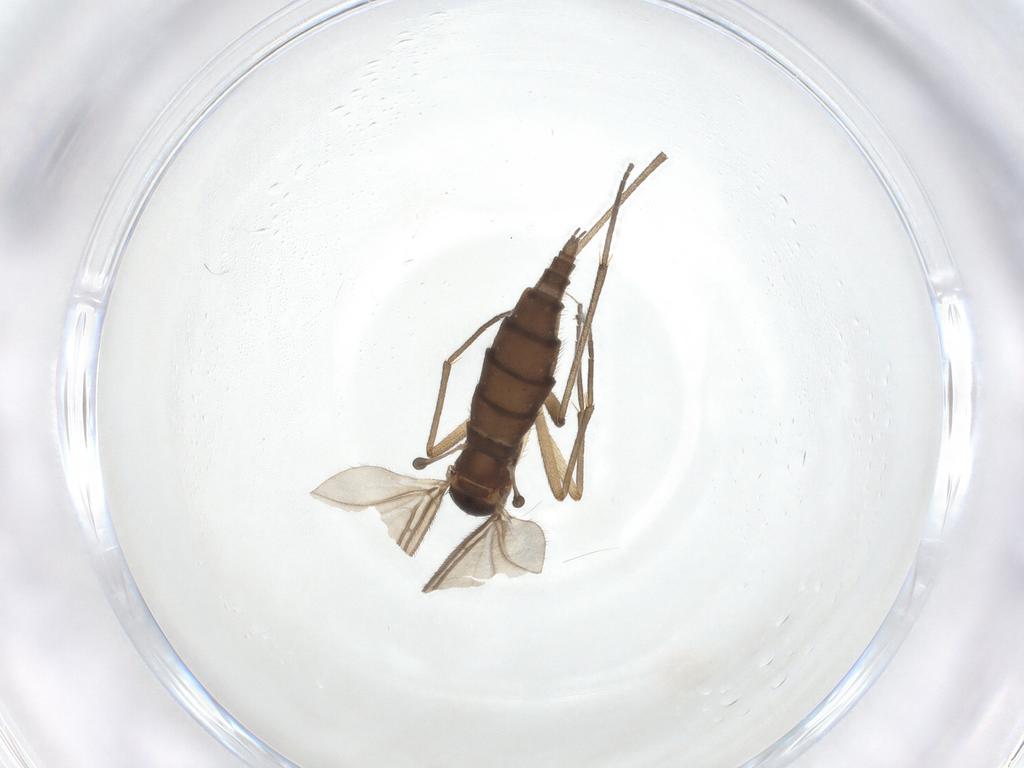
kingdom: Animalia
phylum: Arthropoda
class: Insecta
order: Diptera
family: Sciaridae
